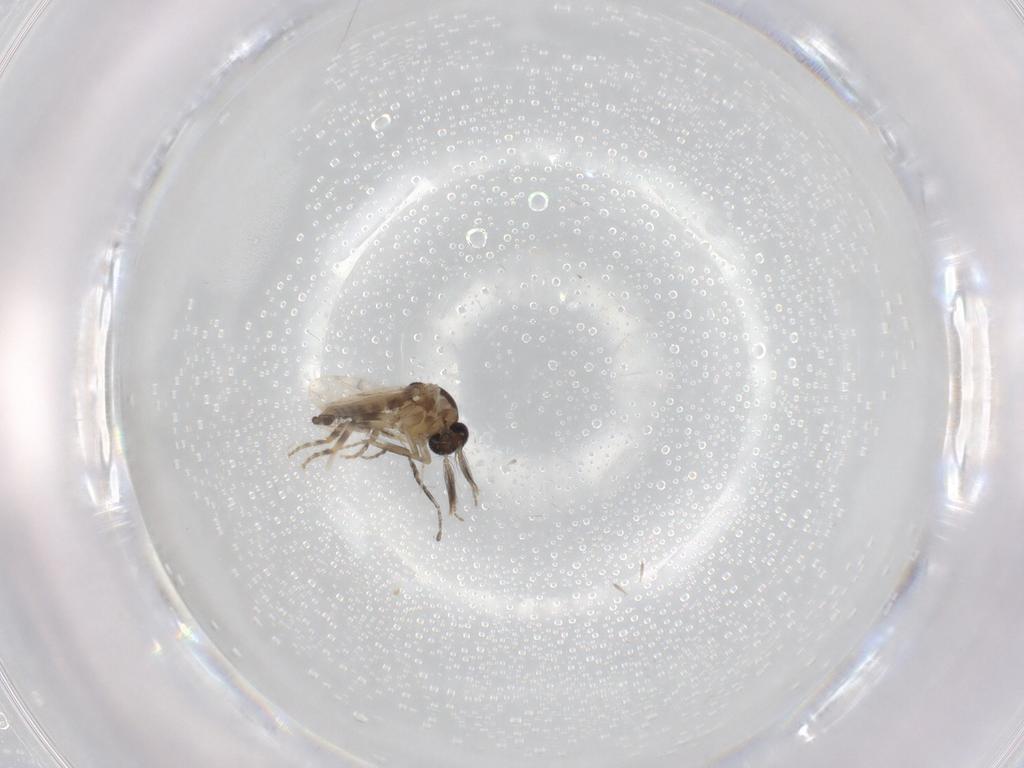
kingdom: Animalia
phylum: Arthropoda
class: Insecta
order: Diptera
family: Ceratopogonidae
